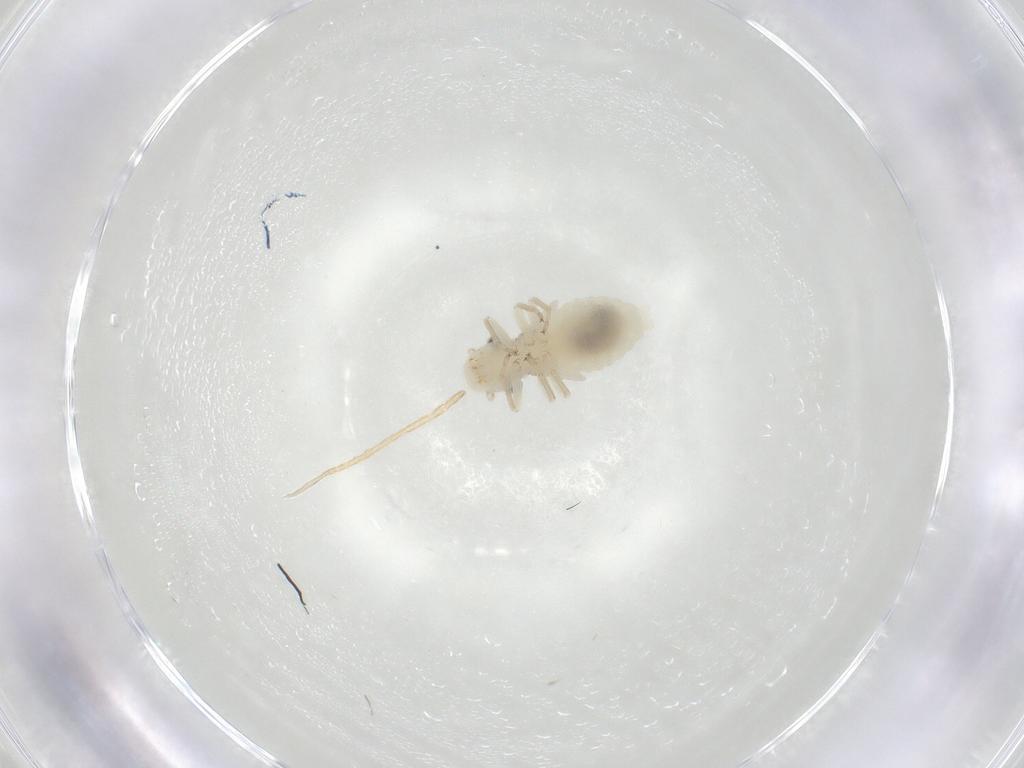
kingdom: Animalia
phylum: Arthropoda
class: Insecta
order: Psocodea
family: Caeciliusidae
